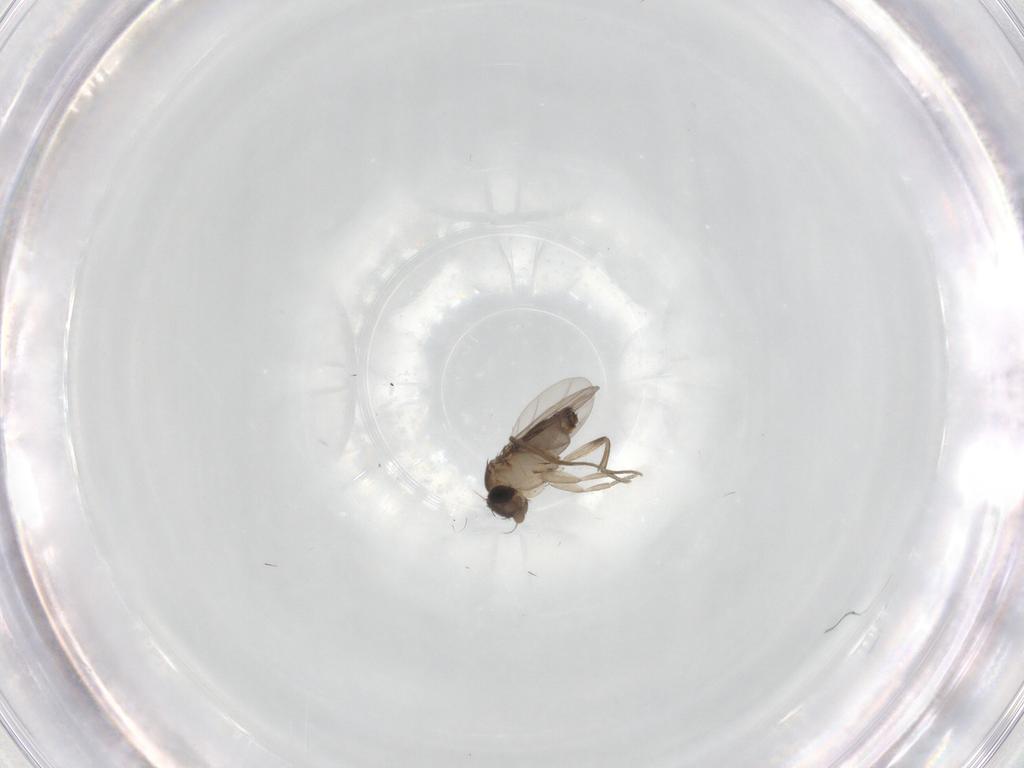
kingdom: Animalia
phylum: Arthropoda
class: Insecta
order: Diptera
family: Phoridae
